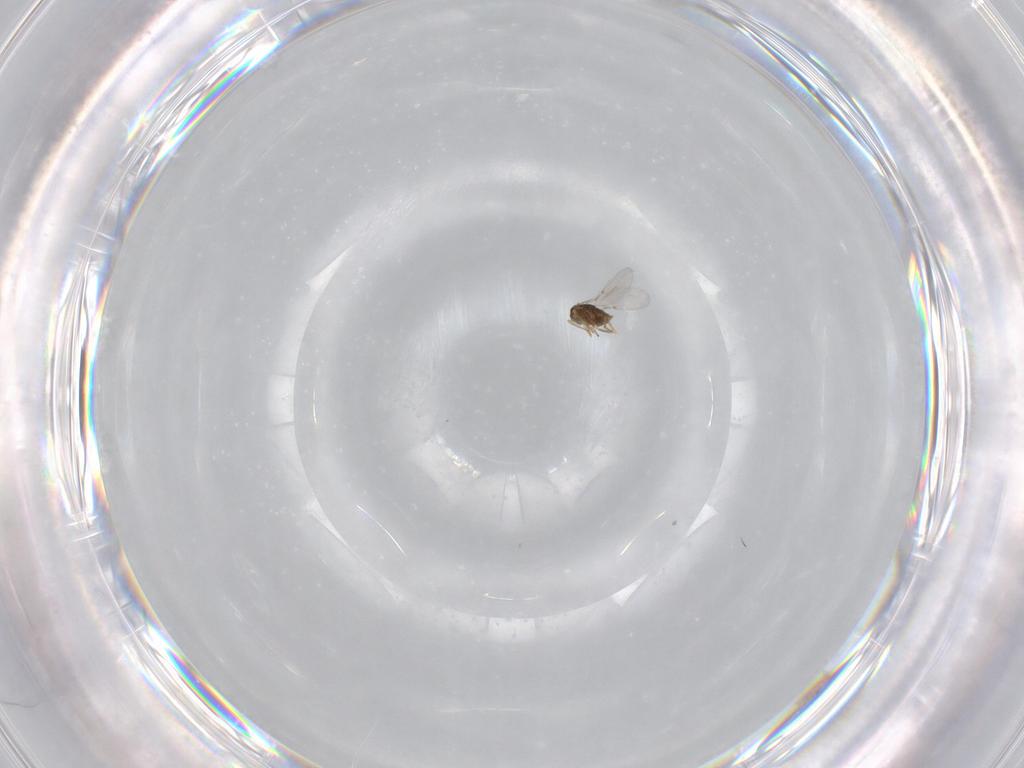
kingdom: Animalia
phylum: Arthropoda
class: Insecta
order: Hymenoptera
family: Encyrtidae
